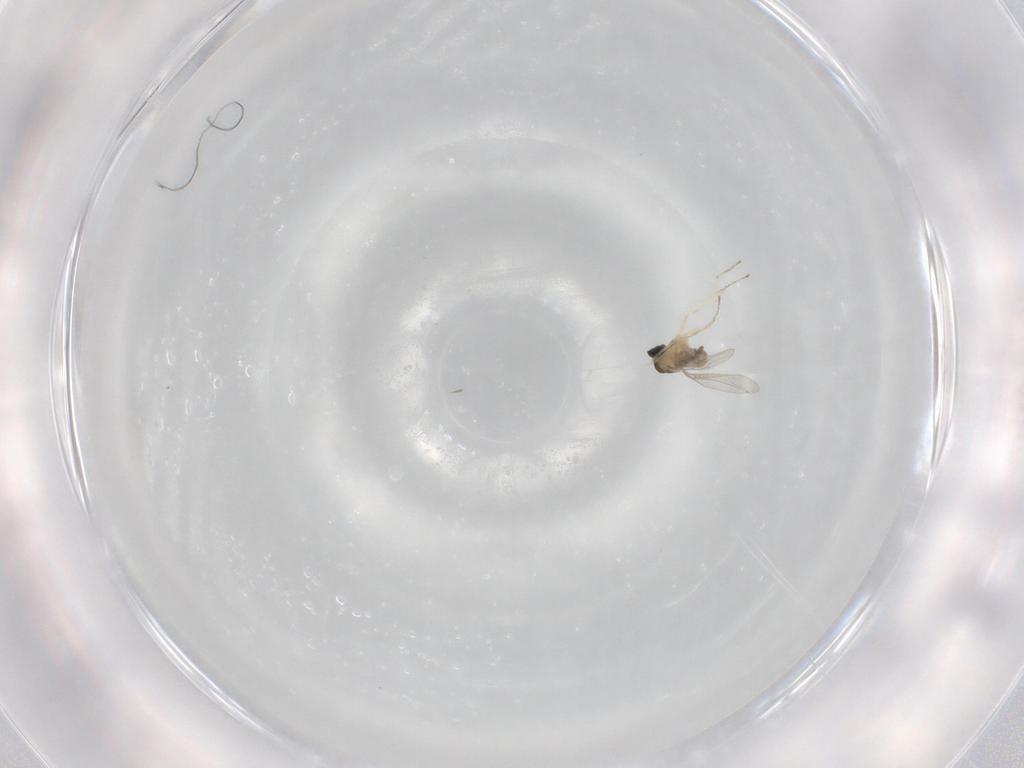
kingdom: Animalia
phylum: Arthropoda
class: Insecta
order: Diptera
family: Cecidomyiidae
